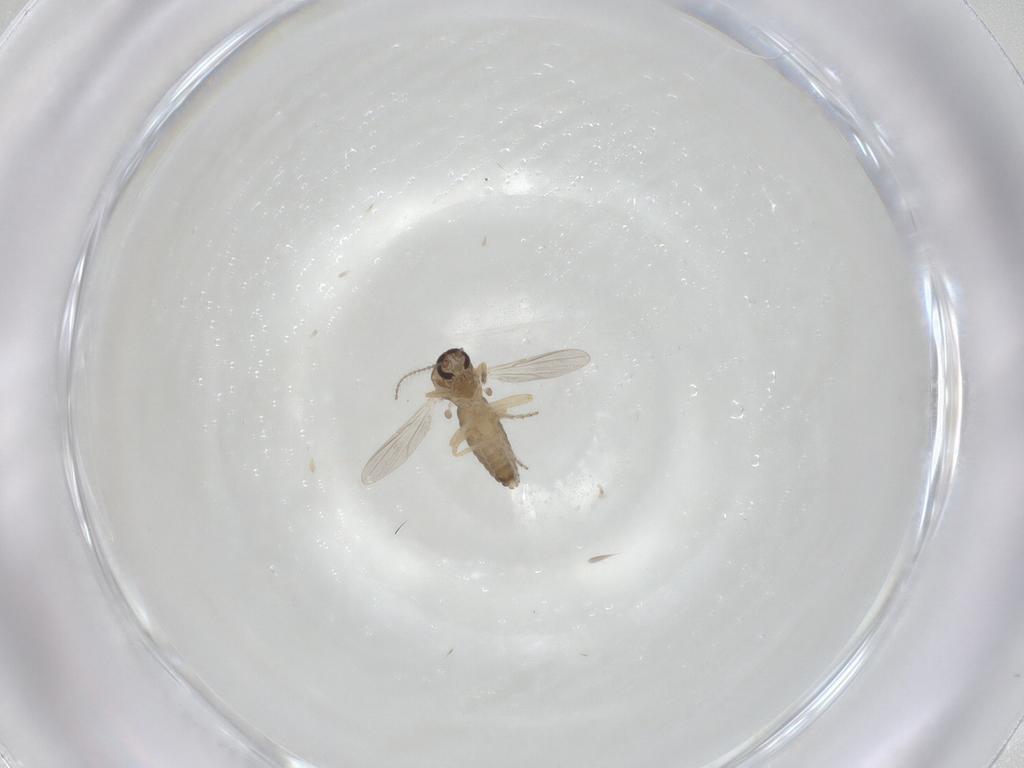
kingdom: Animalia
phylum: Arthropoda
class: Insecta
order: Diptera
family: Ceratopogonidae
